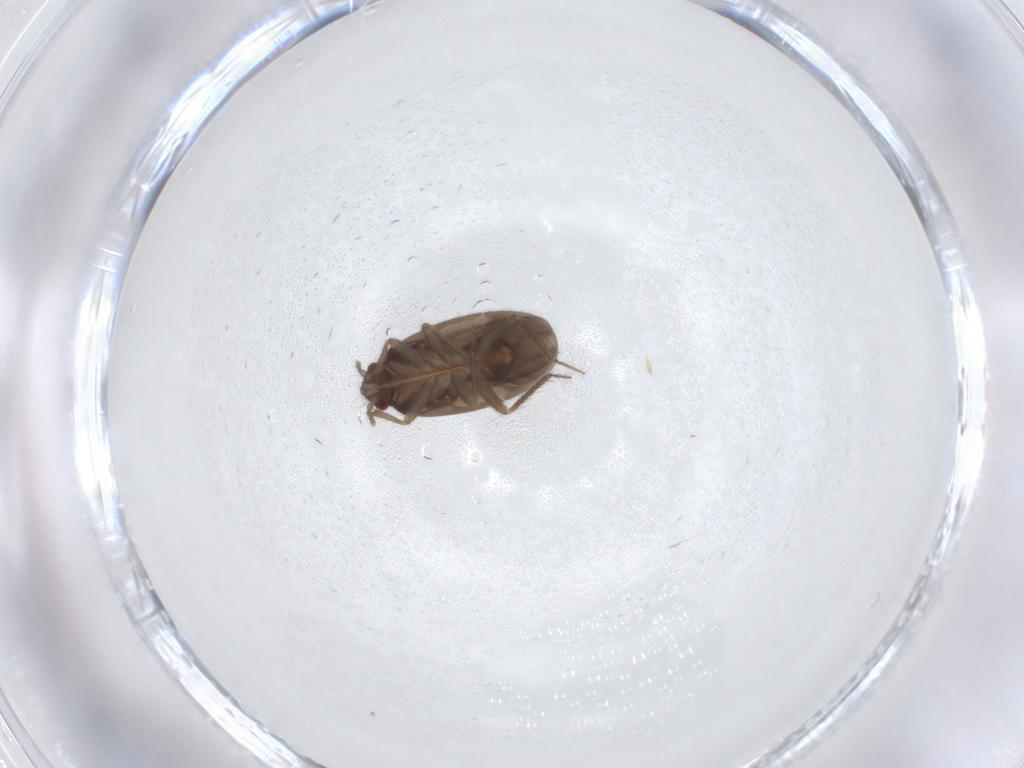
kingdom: Animalia
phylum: Arthropoda
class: Insecta
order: Hemiptera
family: Ceratocombidae
